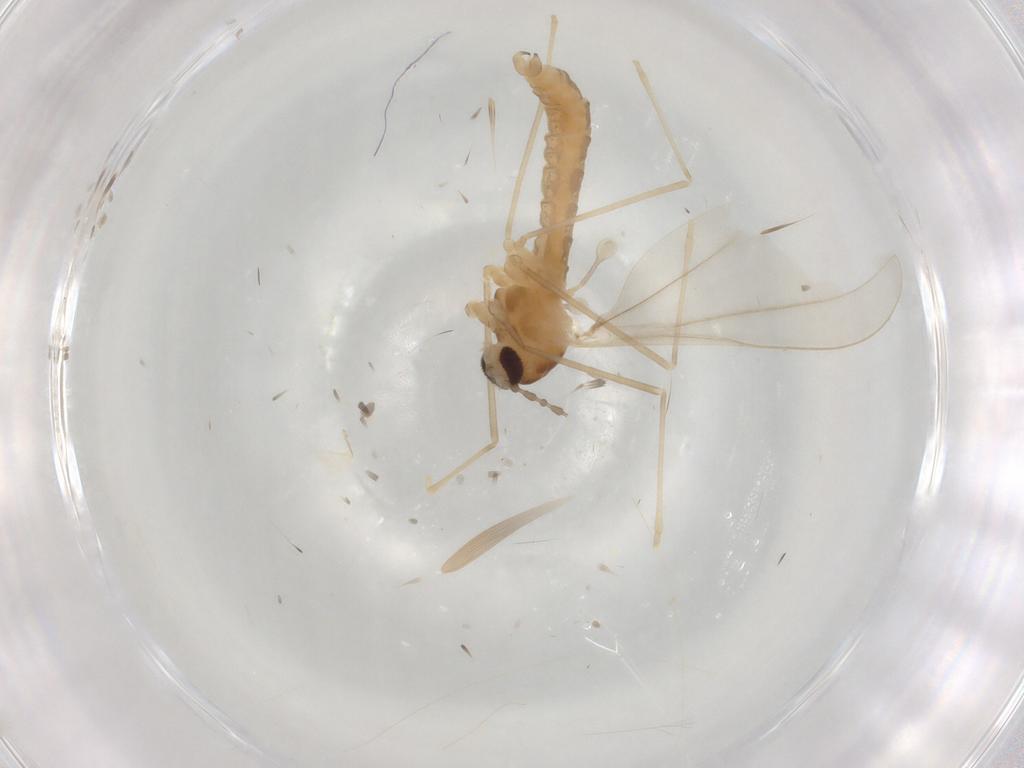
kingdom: Animalia
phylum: Arthropoda
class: Insecta
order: Diptera
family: Cecidomyiidae
